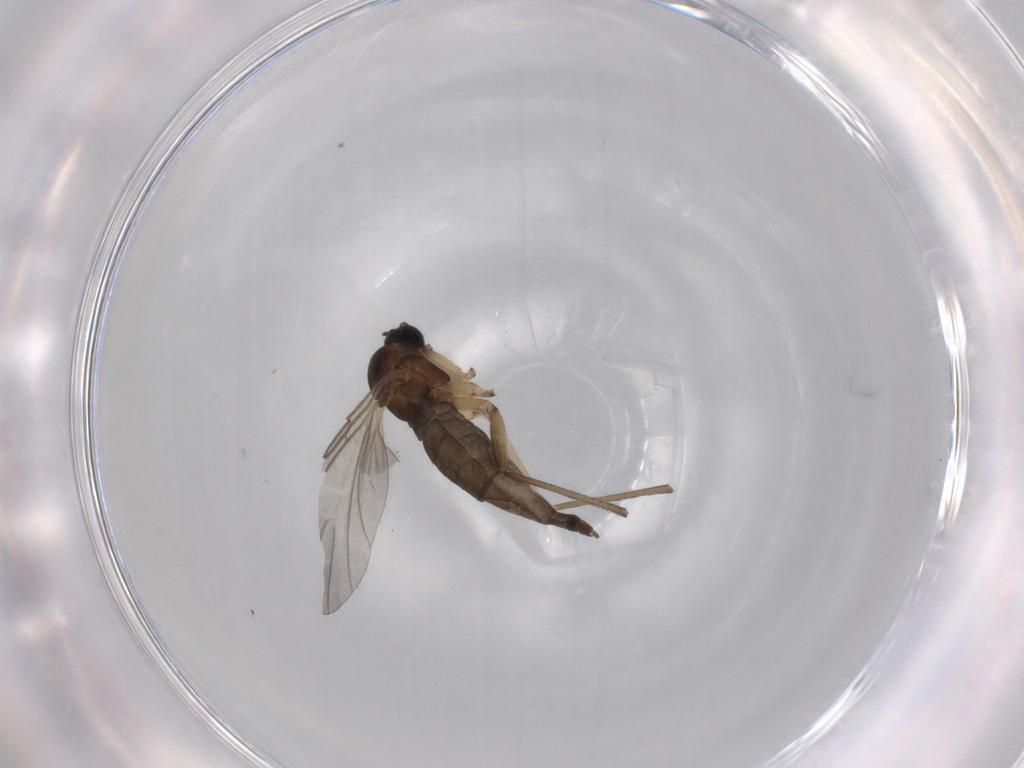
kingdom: Animalia
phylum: Arthropoda
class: Insecta
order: Diptera
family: Sciaridae
